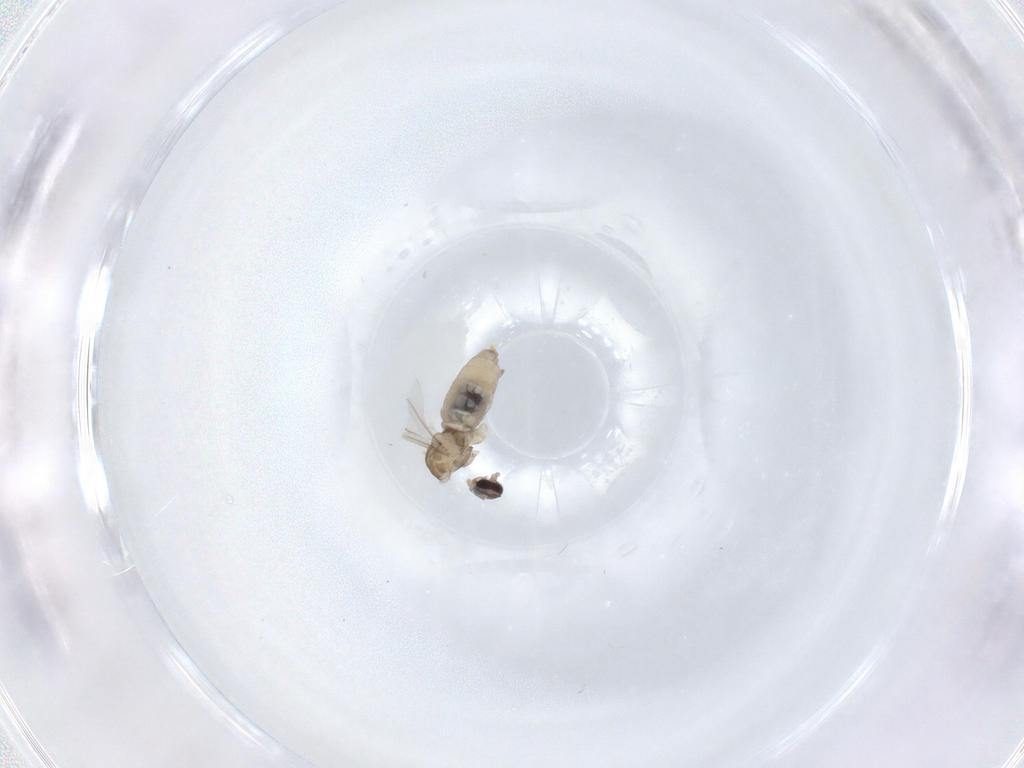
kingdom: Animalia
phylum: Arthropoda
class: Insecta
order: Diptera
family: Cecidomyiidae
